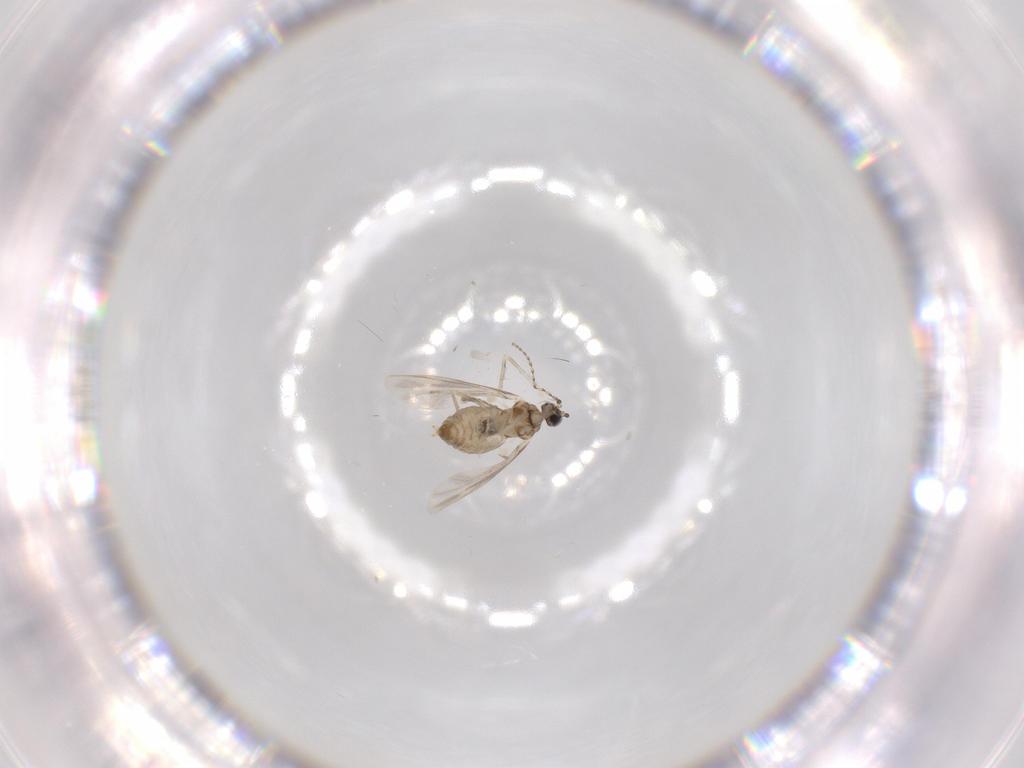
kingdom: Animalia
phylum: Arthropoda
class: Insecta
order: Diptera
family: Cecidomyiidae
